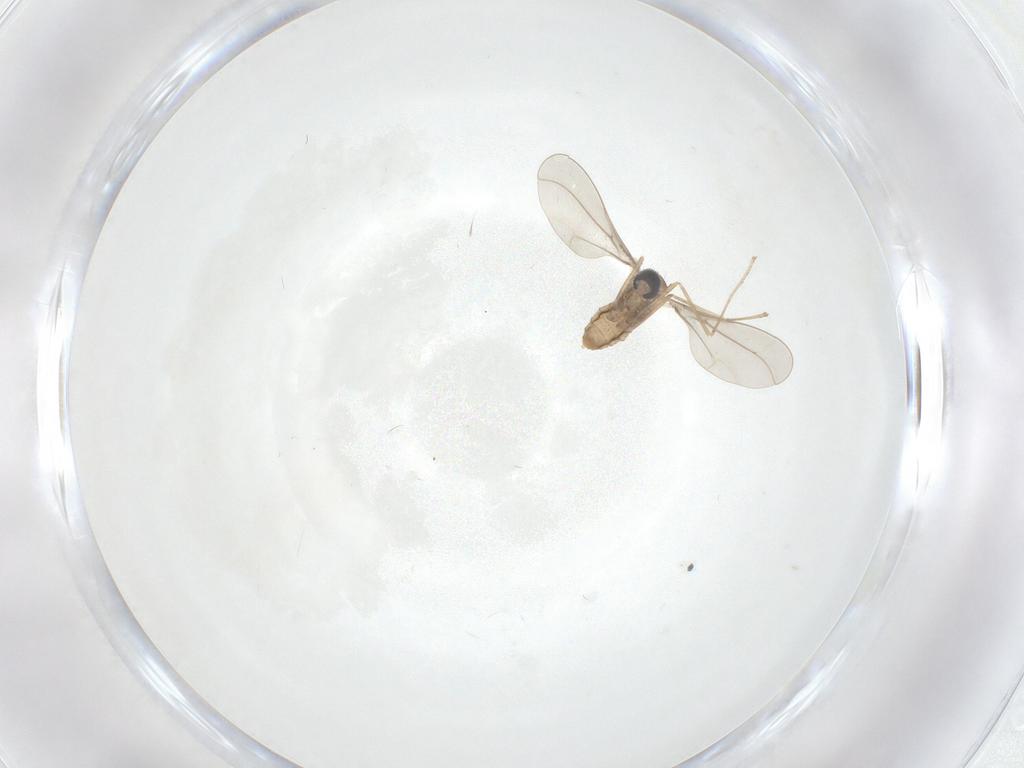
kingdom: Animalia
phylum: Arthropoda
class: Insecta
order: Diptera
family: Cecidomyiidae
